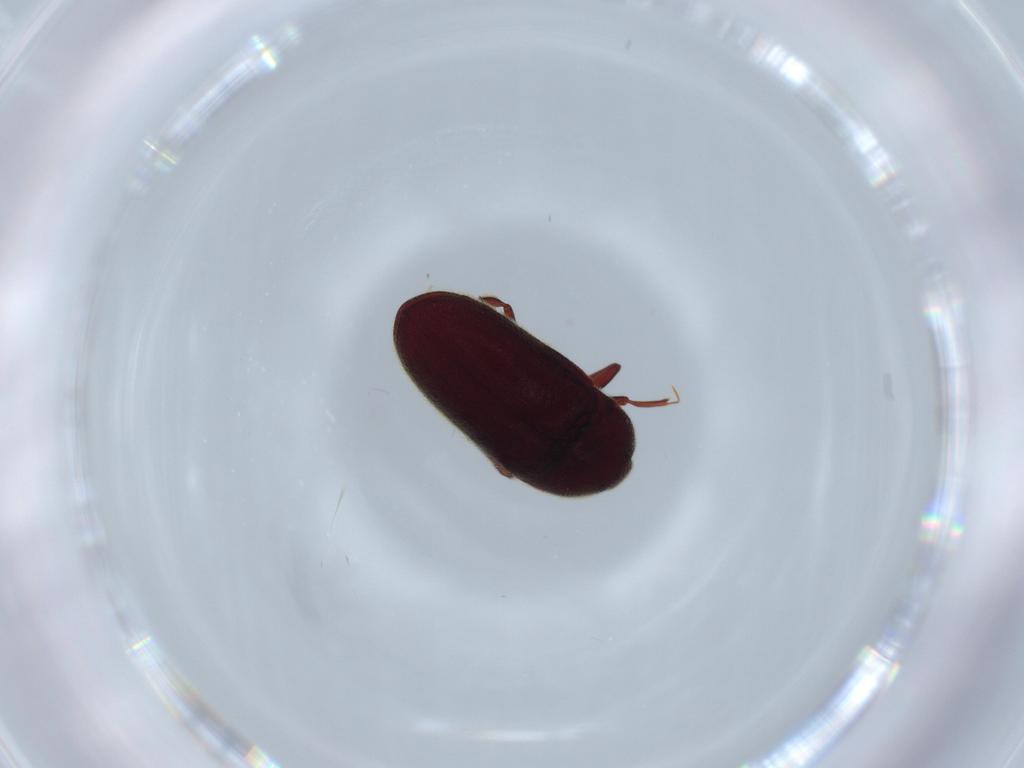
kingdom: Animalia
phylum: Arthropoda
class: Insecta
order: Coleoptera
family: Throscidae
